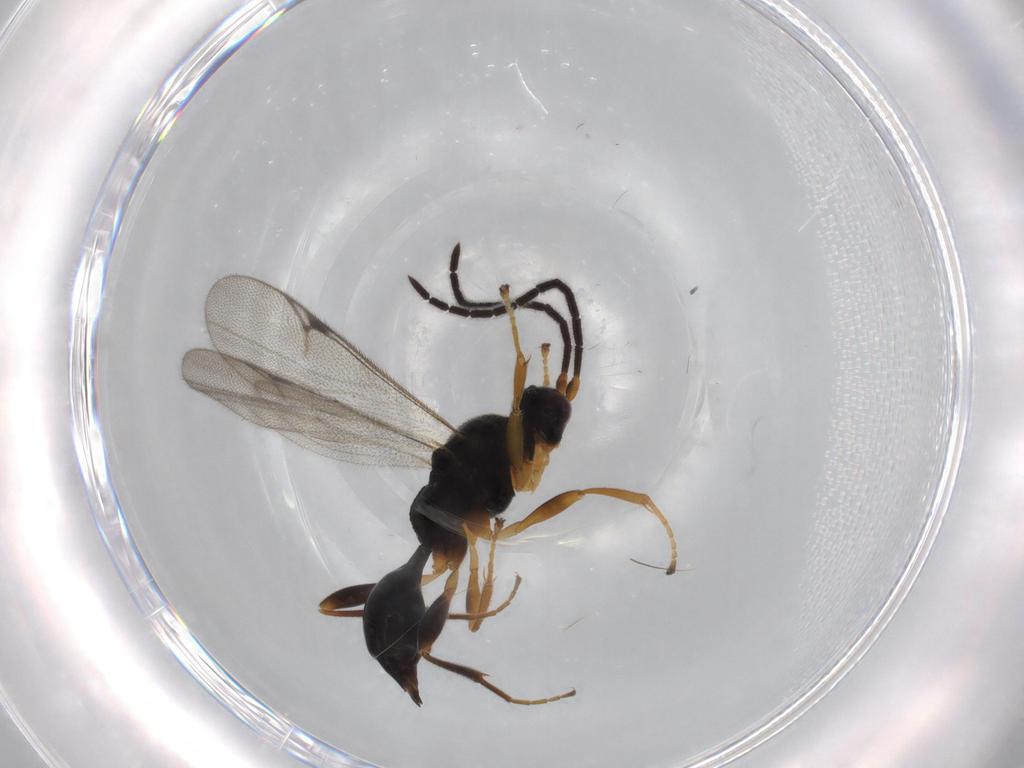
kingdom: Animalia
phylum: Arthropoda
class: Insecta
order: Hymenoptera
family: Proctotrupidae
